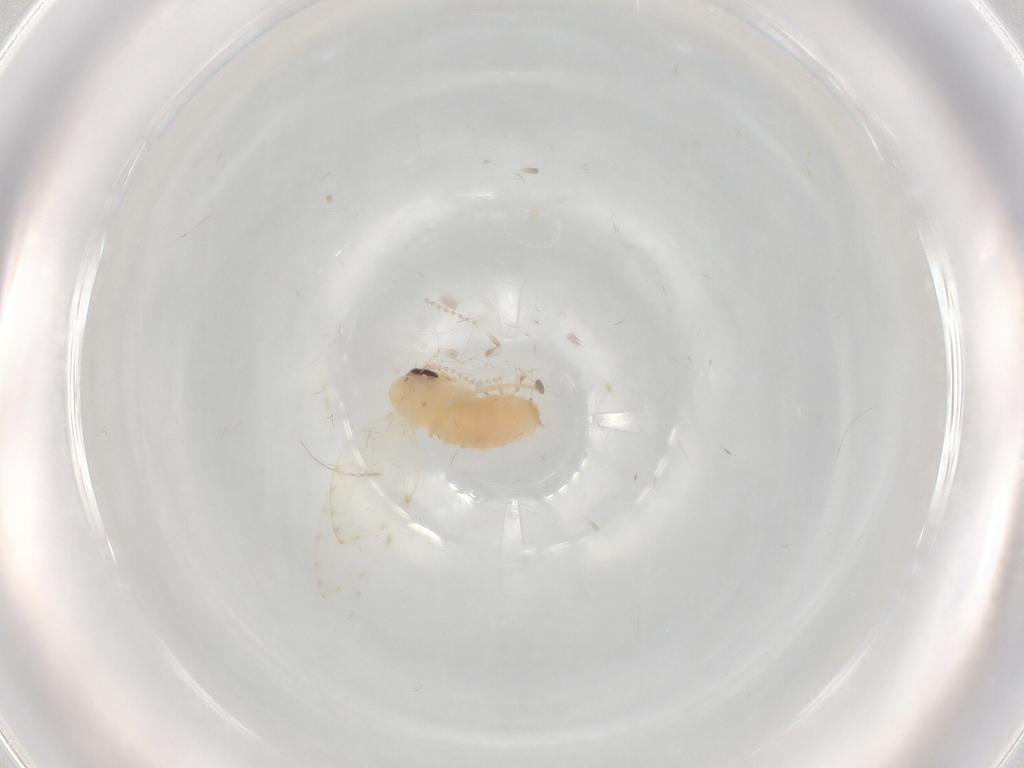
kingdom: Animalia
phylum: Arthropoda
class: Insecta
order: Diptera
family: Psychodidae
